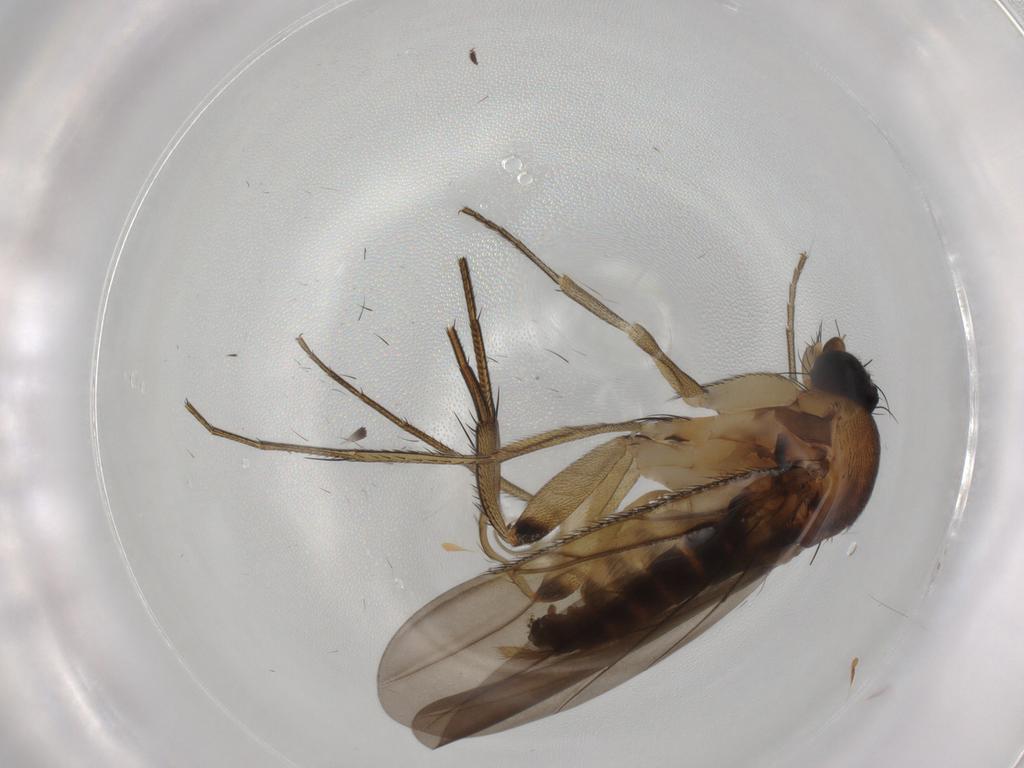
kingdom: Animalia
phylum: Arthropoda
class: Insecta
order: Diptera
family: Phoridae
